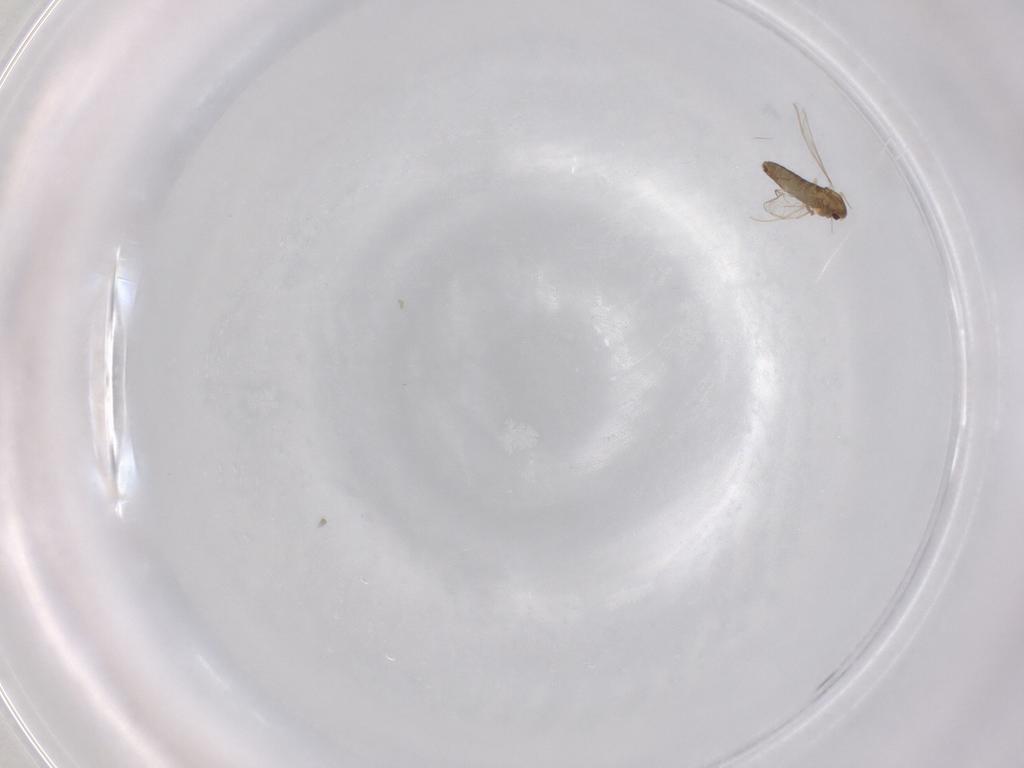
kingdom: Animalia
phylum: Arthropoda
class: Insecta
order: Diptera
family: Chironomidae
